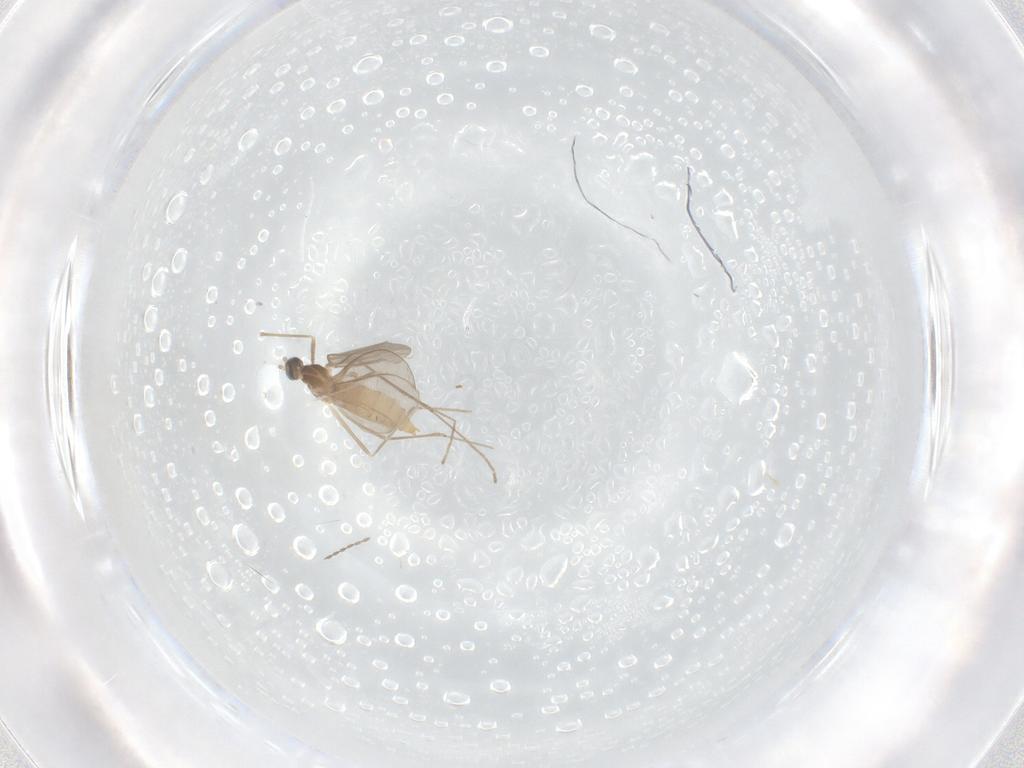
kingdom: Animalia
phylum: Arthropoda
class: Insecta
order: Diptera
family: Cecidomyiidae
